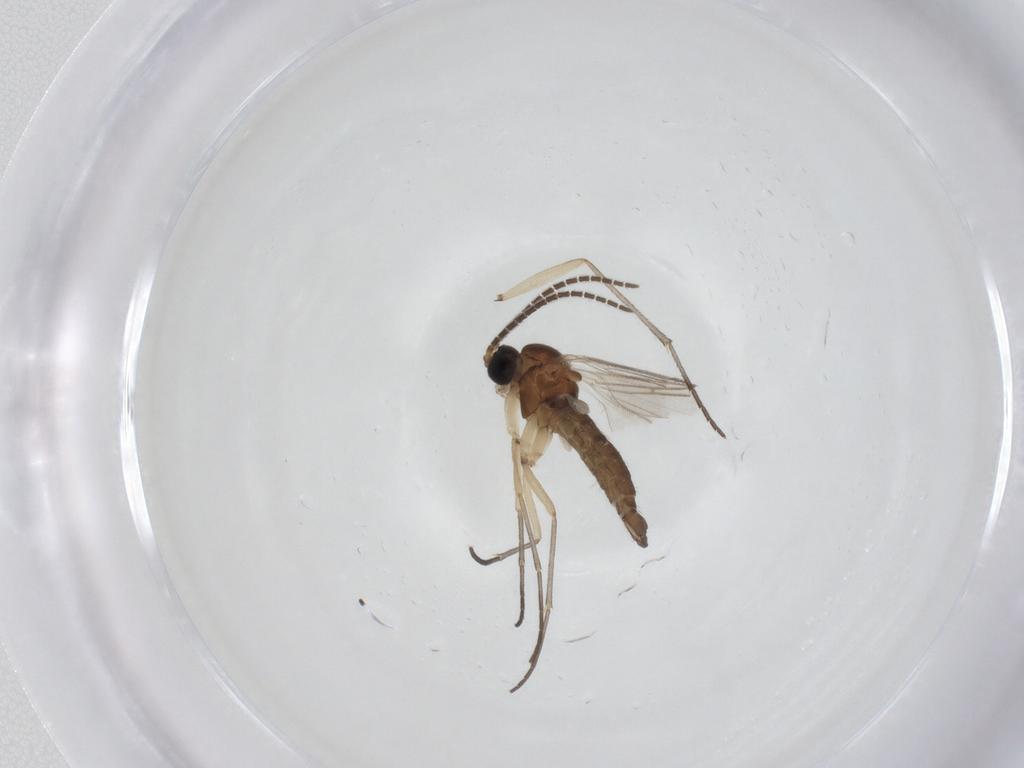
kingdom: Animalia
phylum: Arthropoda
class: Insecta
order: Diptera
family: Sciaridae
